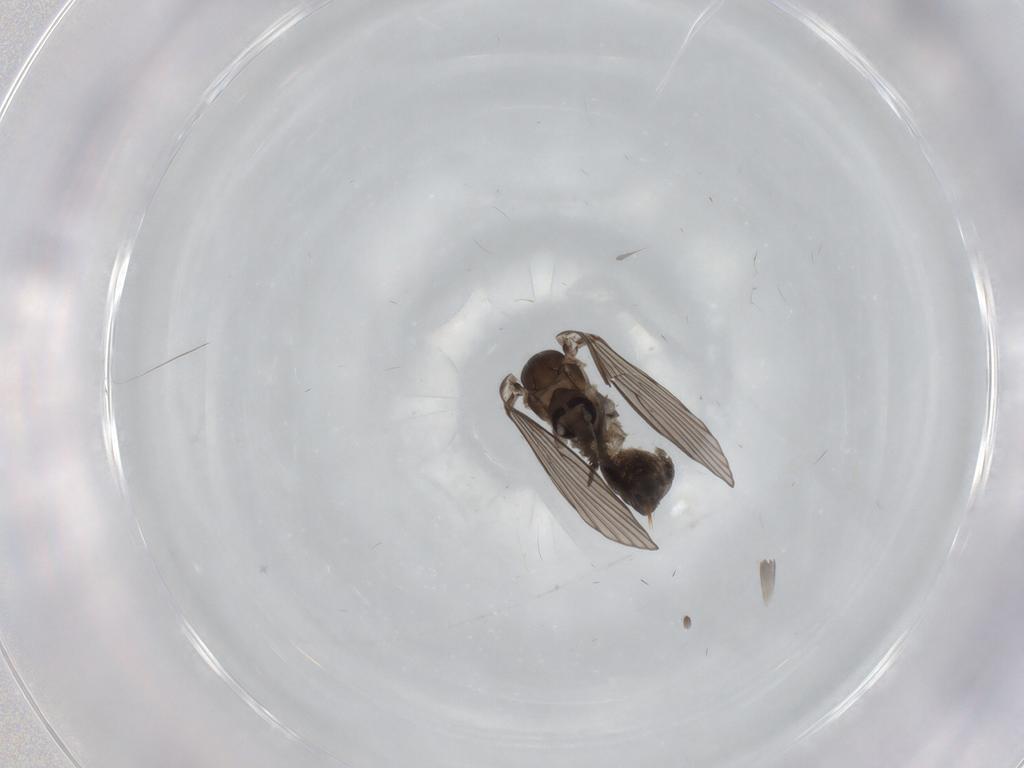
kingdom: Animalia
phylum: Arthropoda
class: Insecta
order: Diptera
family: Psychodidae
